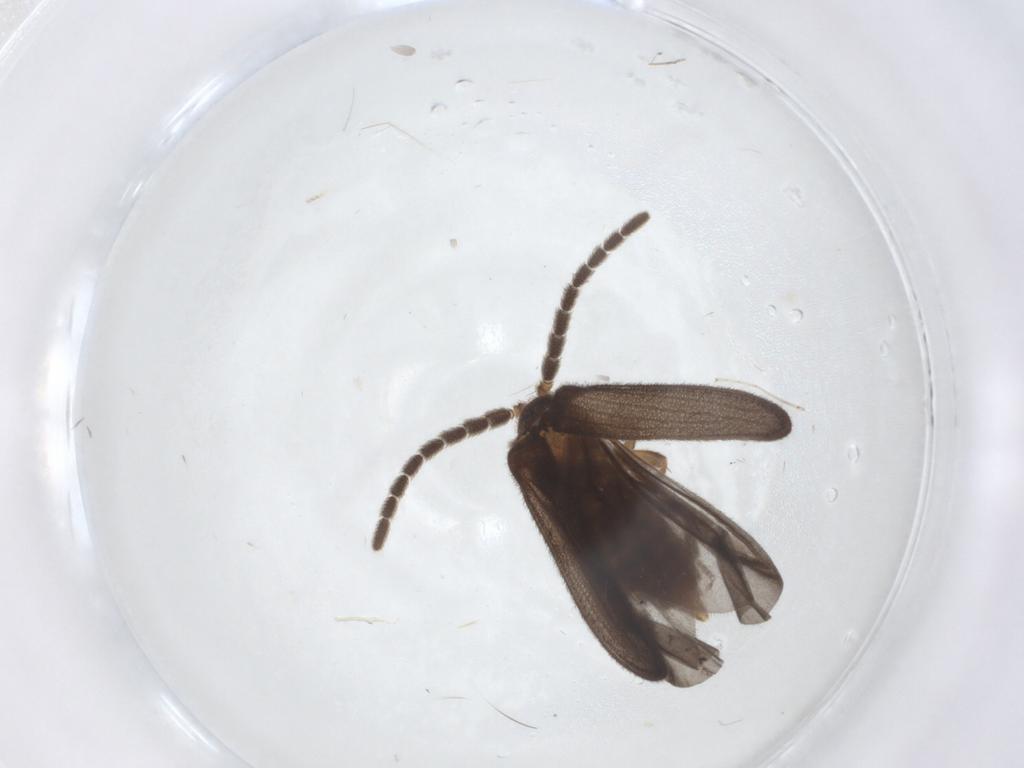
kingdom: Animalia
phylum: Arthropoda
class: Insecta
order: Coleoptera
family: Lycidae
